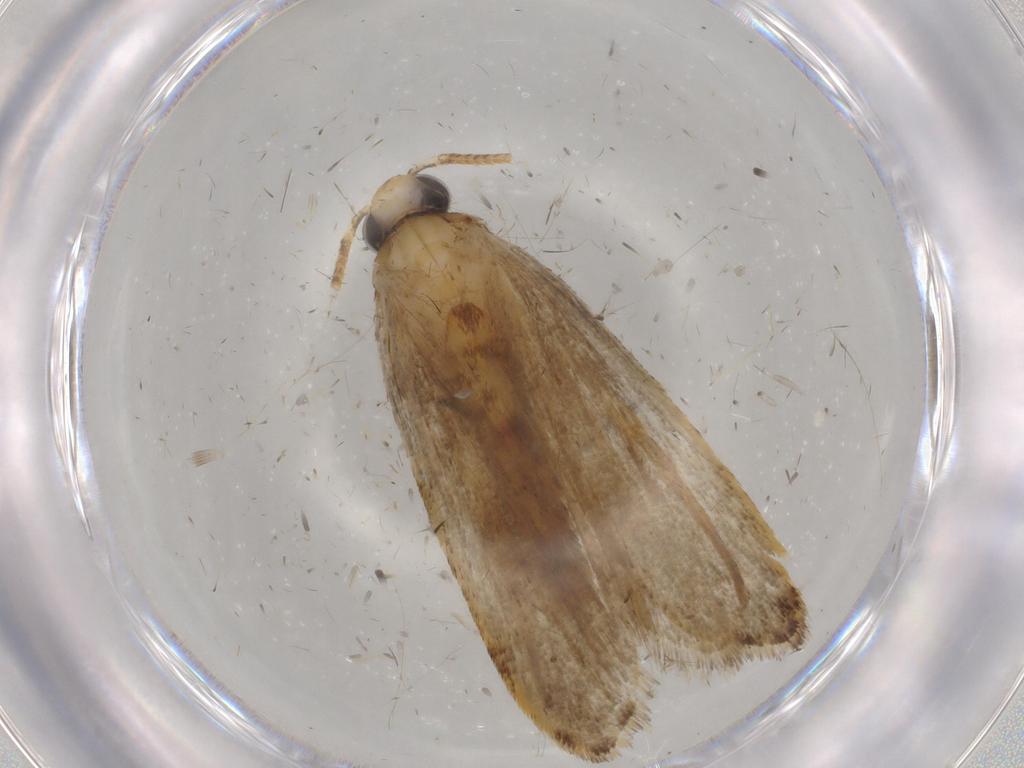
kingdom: Animalia
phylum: Arthropoda
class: Insecta
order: Lepidoptera
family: Autostichidae
